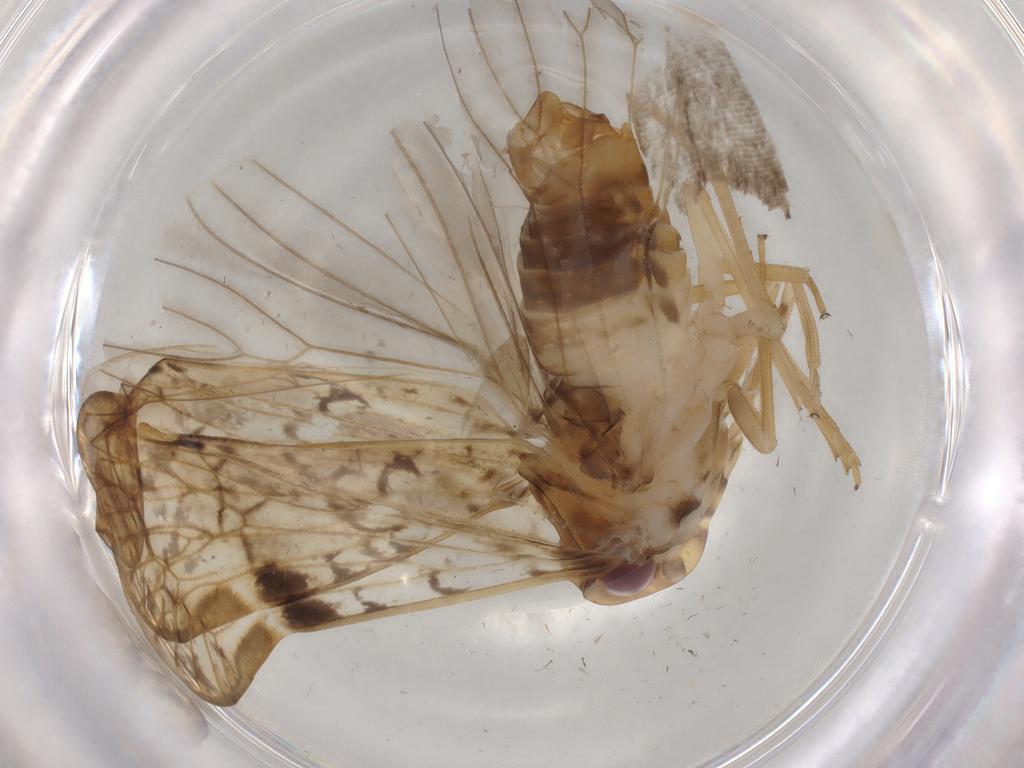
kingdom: Animalia
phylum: Arthropoda
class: Insecta
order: Hemiptera
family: Cixiidae
